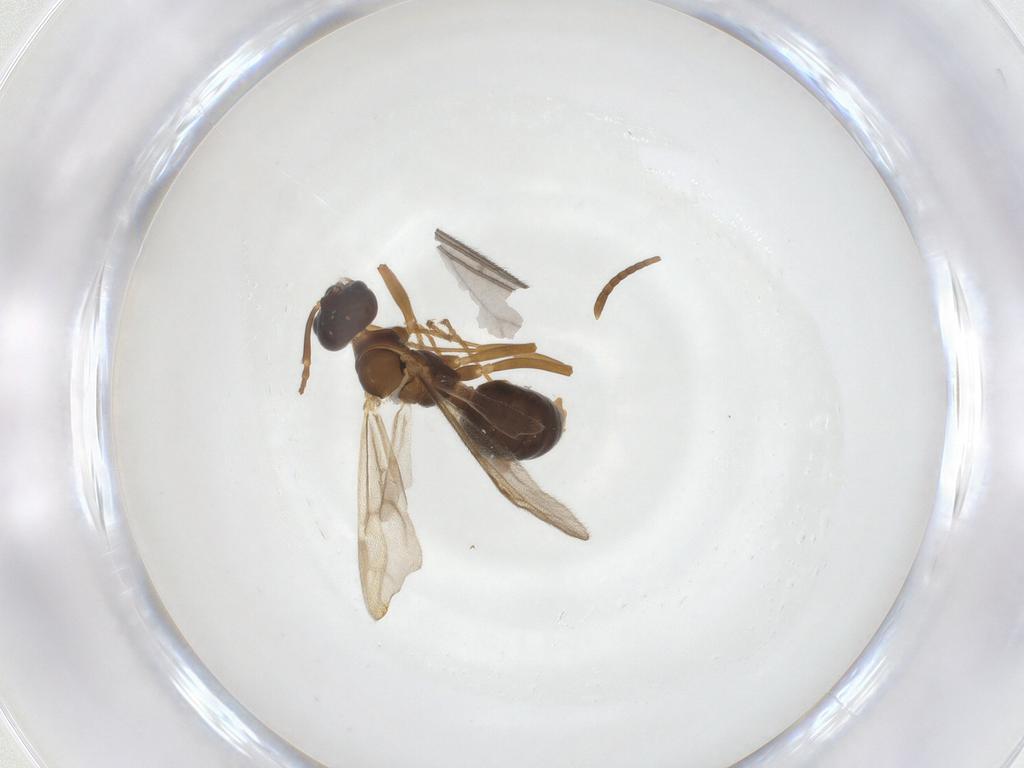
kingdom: Animalia
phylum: Arthropoda
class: Insecta
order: Hymenoptera
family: Formicidae
